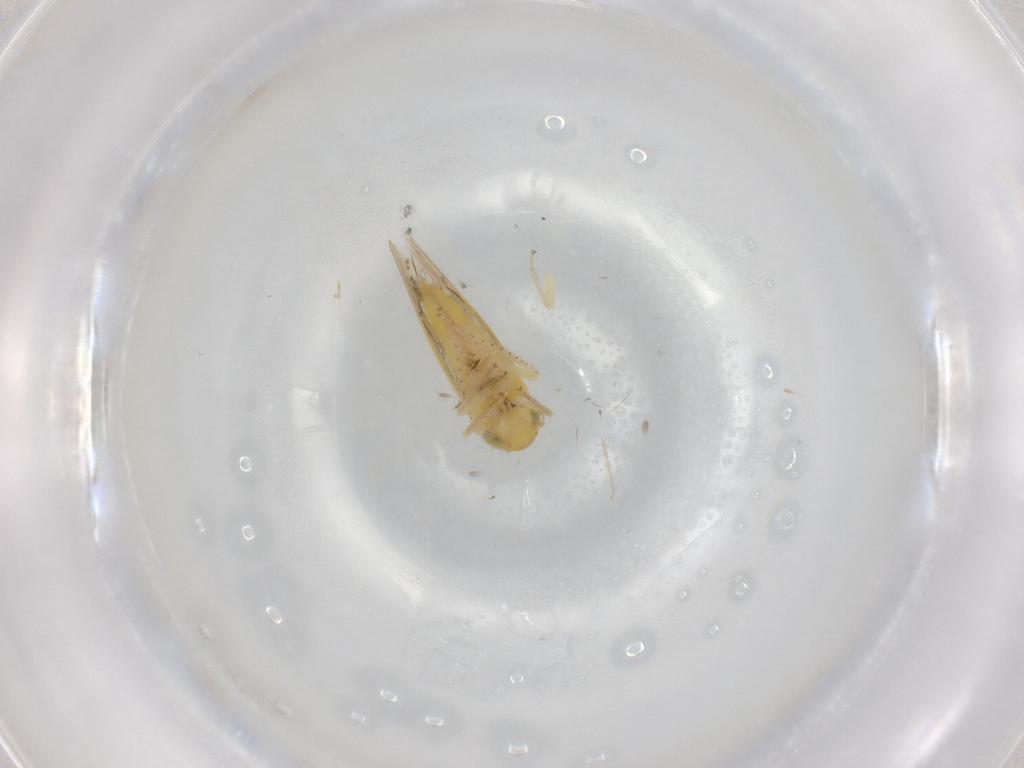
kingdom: Animalia
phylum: Arthropoda
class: Insecta
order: Hemiptera
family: Cicadellidae
